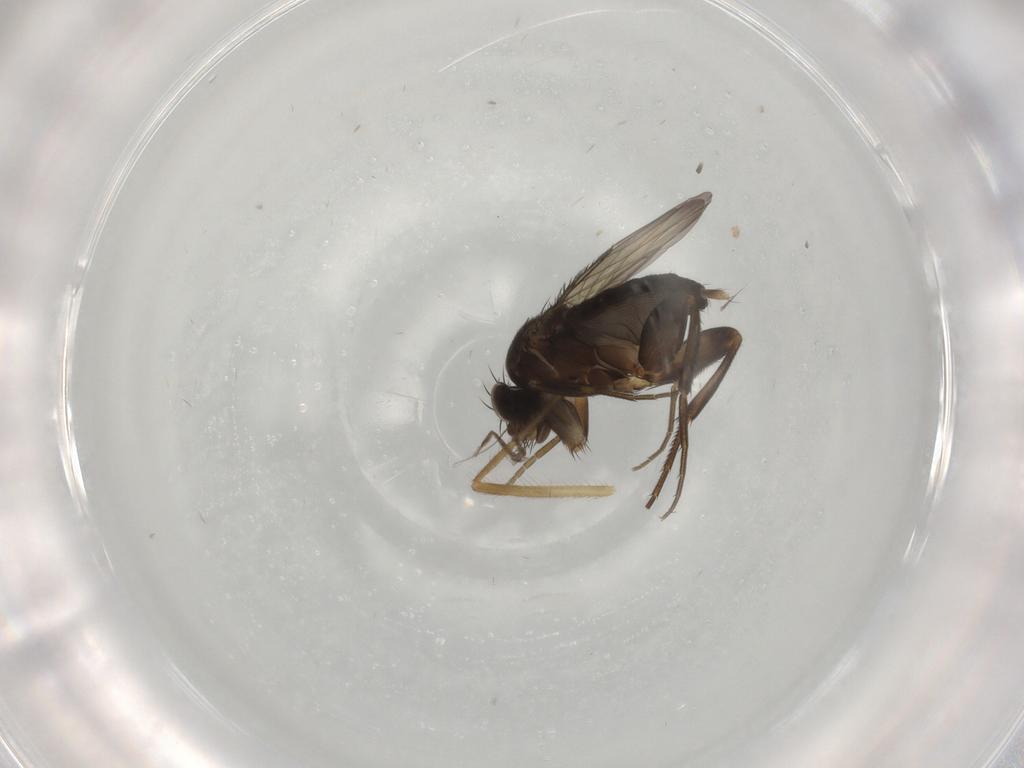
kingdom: Animalia
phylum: Arthropoda
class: Insecta
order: Diptera
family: Phoridae
